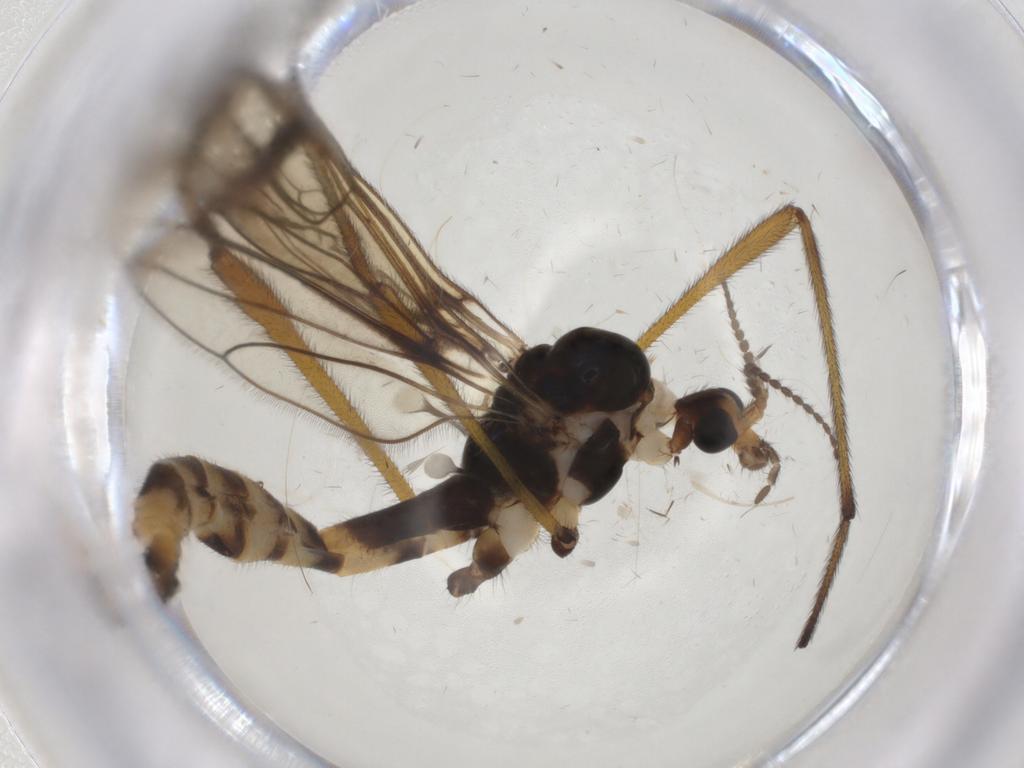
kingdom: Animalia
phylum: Arthropoda
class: Insecta
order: Diptera
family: Limoniidae
